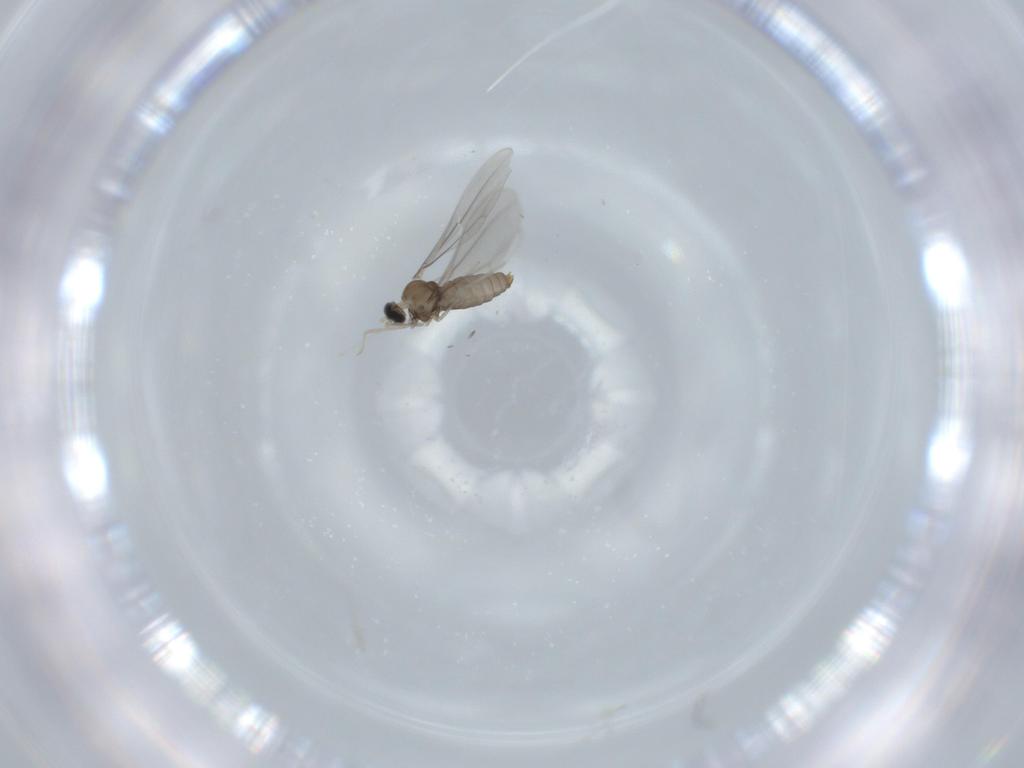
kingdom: Animalia
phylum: Arthropoda
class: Insecta
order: Diptera
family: Cecidomyiidae
